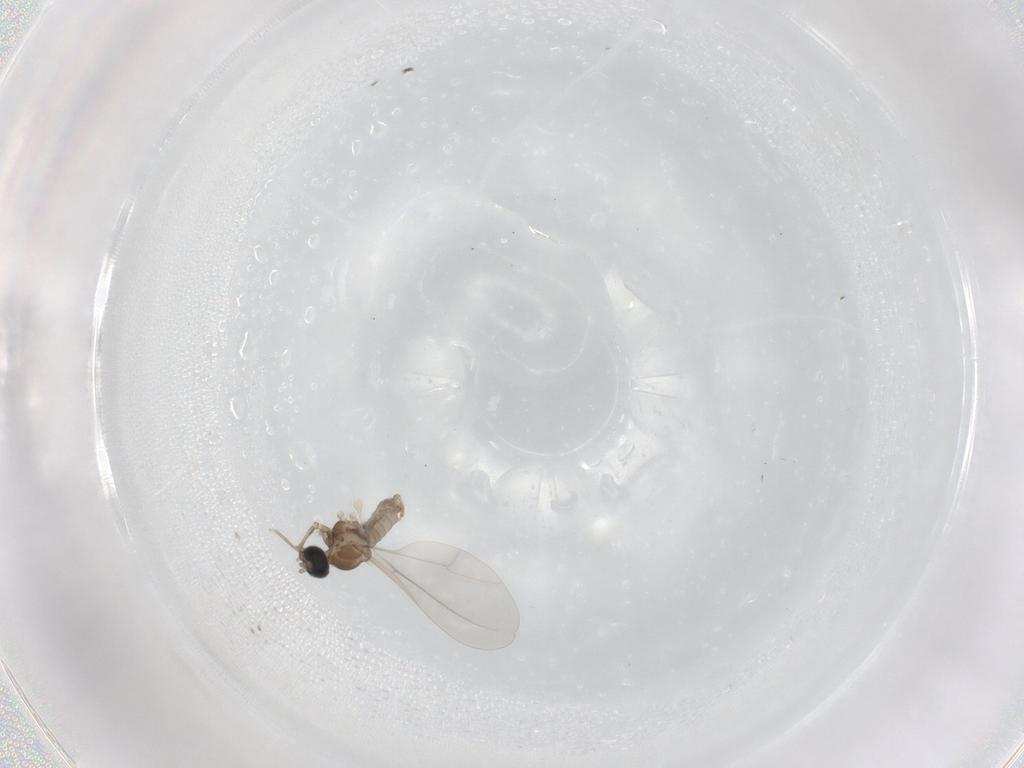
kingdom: Animalia
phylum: Arthropoda
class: Insecta
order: Diptera
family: Cecidomyiidae
